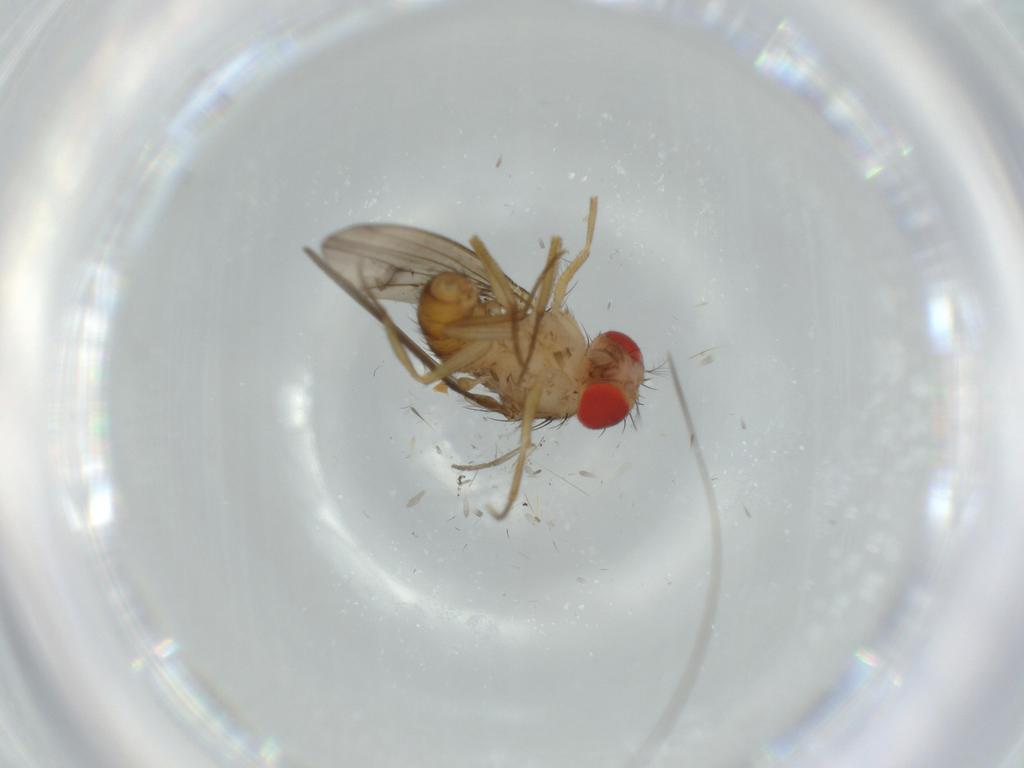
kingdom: Animalia
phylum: Arthropoda
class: Insecta
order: Diptera
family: Drosophilidae
